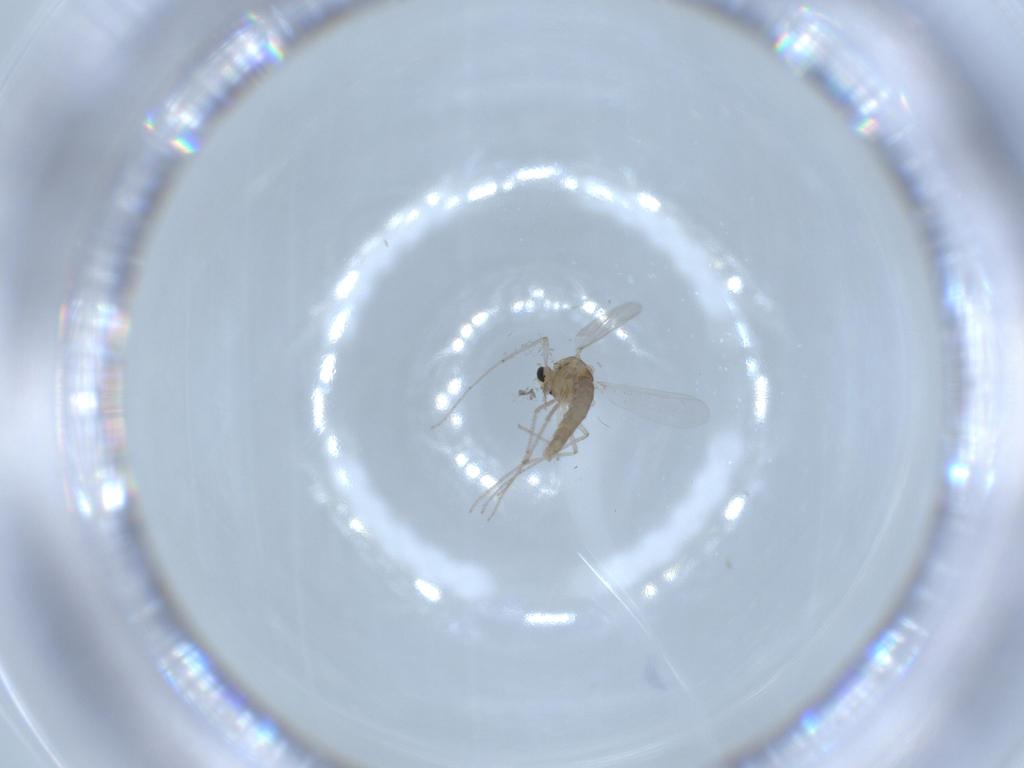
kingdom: Animalia
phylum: Arthropoda
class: Insecta
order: Diptera
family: Chironomidae
